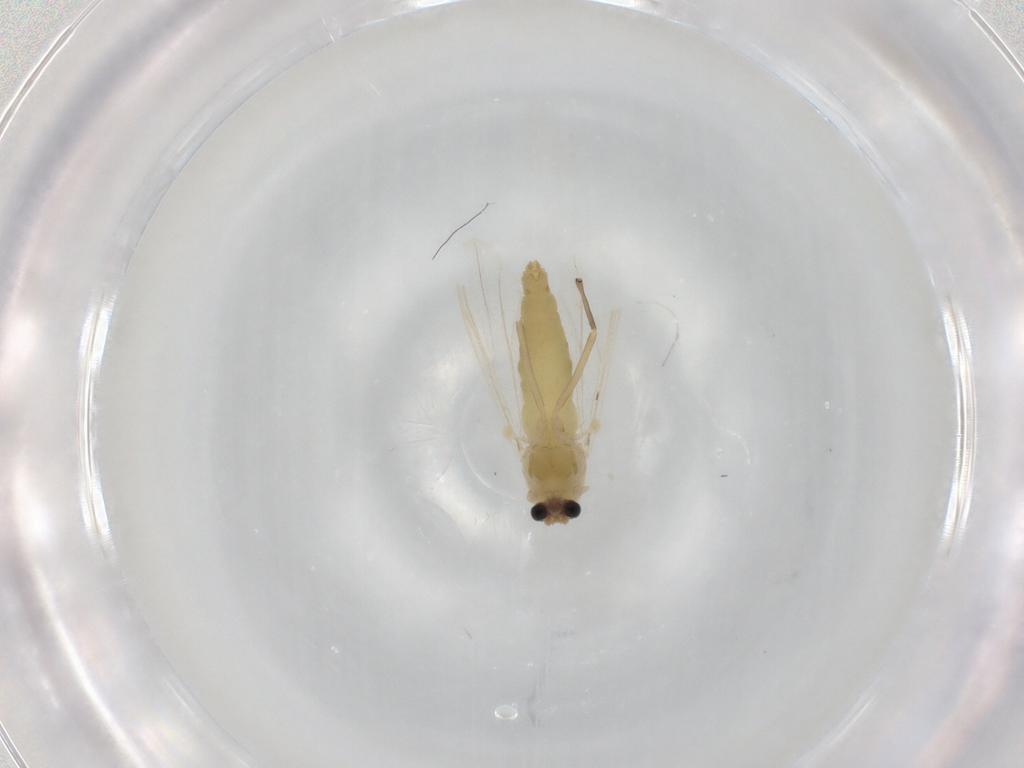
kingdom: Animalia
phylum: Arthropoda
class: Insecta
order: Diptera
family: Chironomidae
